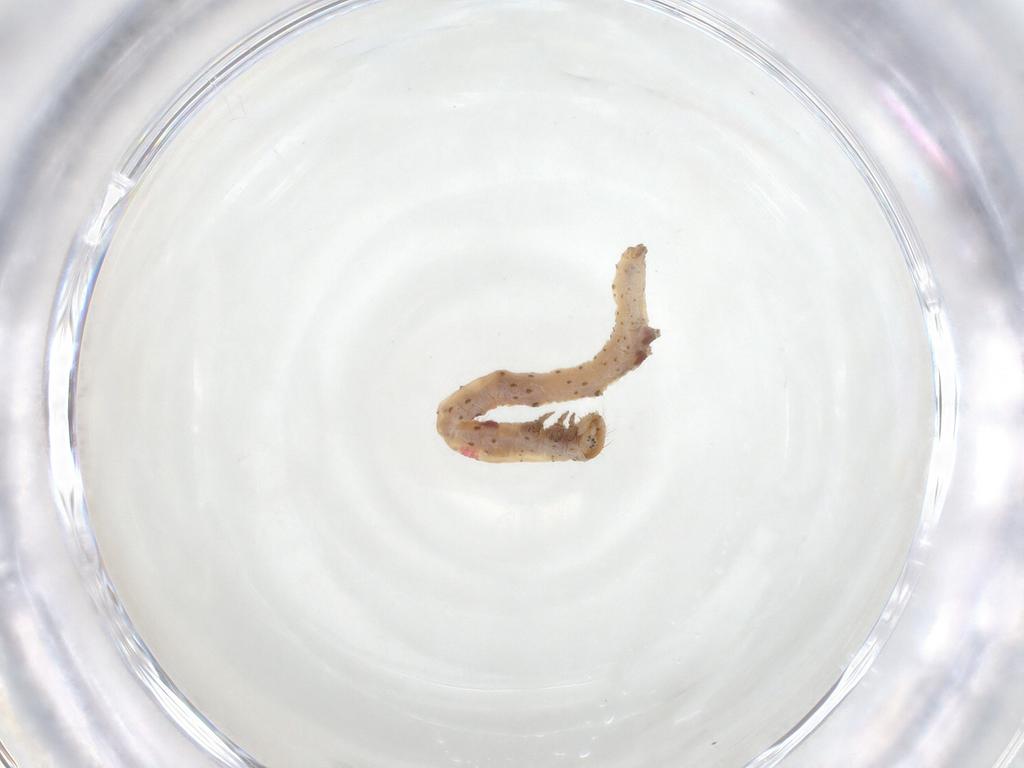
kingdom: Animalia
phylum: Arthropoda
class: Insecta
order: Lepidoptera
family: Erebidae
